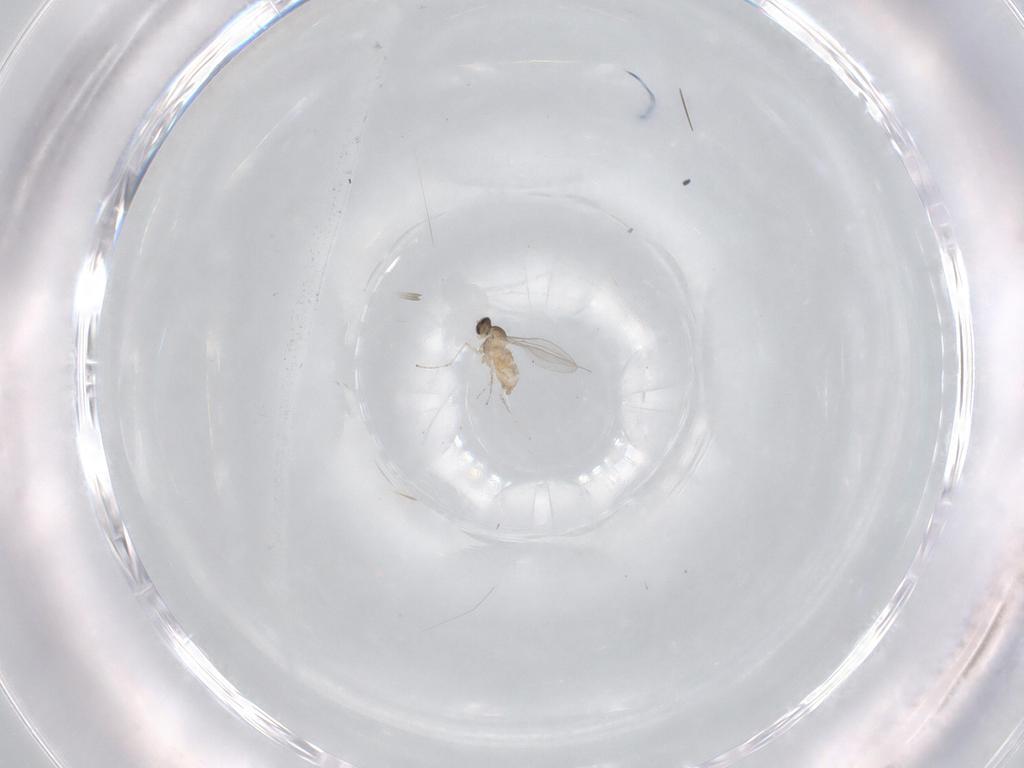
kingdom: Animalia
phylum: Arthropoda
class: Insecta
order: Diptera
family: Cecidomyiidae
